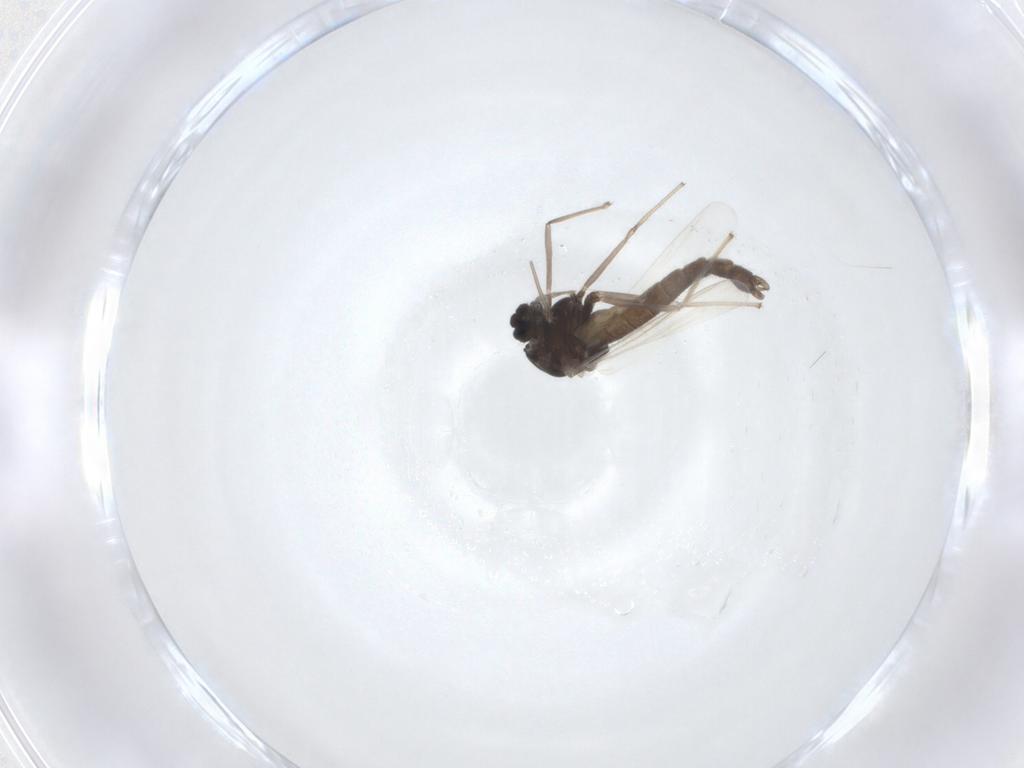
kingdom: Animalia
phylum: Arthropoda
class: Insecta
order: Diptera
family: Chironomidae
